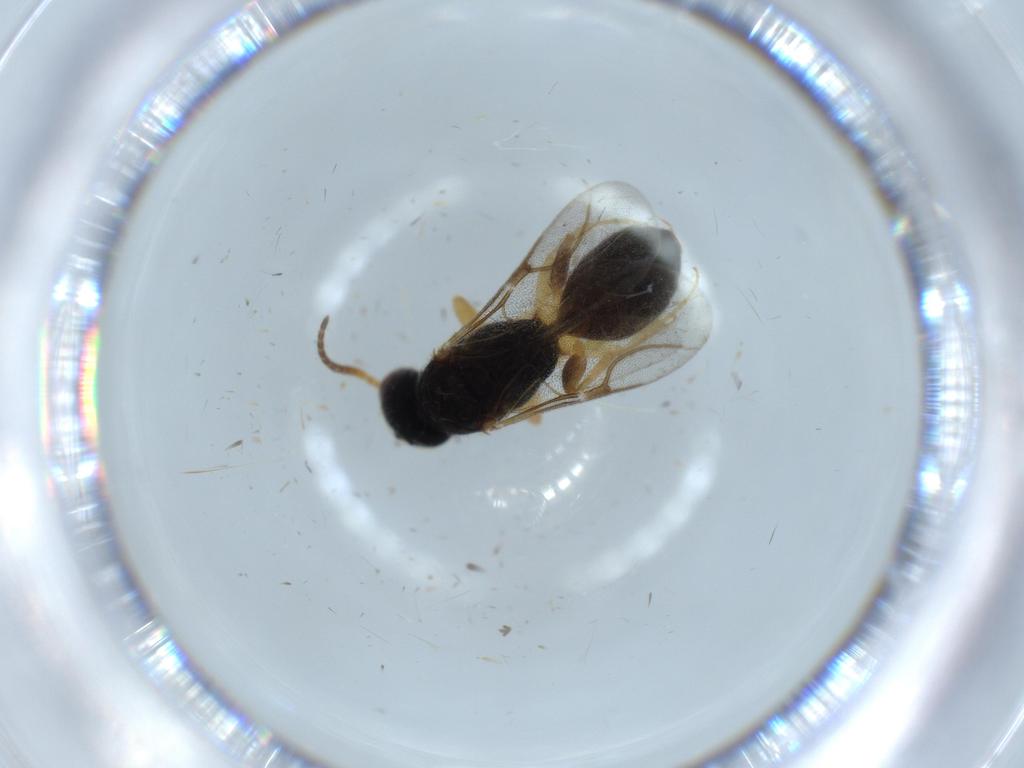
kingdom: Animalia
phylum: Arthropoda
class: Insecta
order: Hymenoptera
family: Bethylidae
